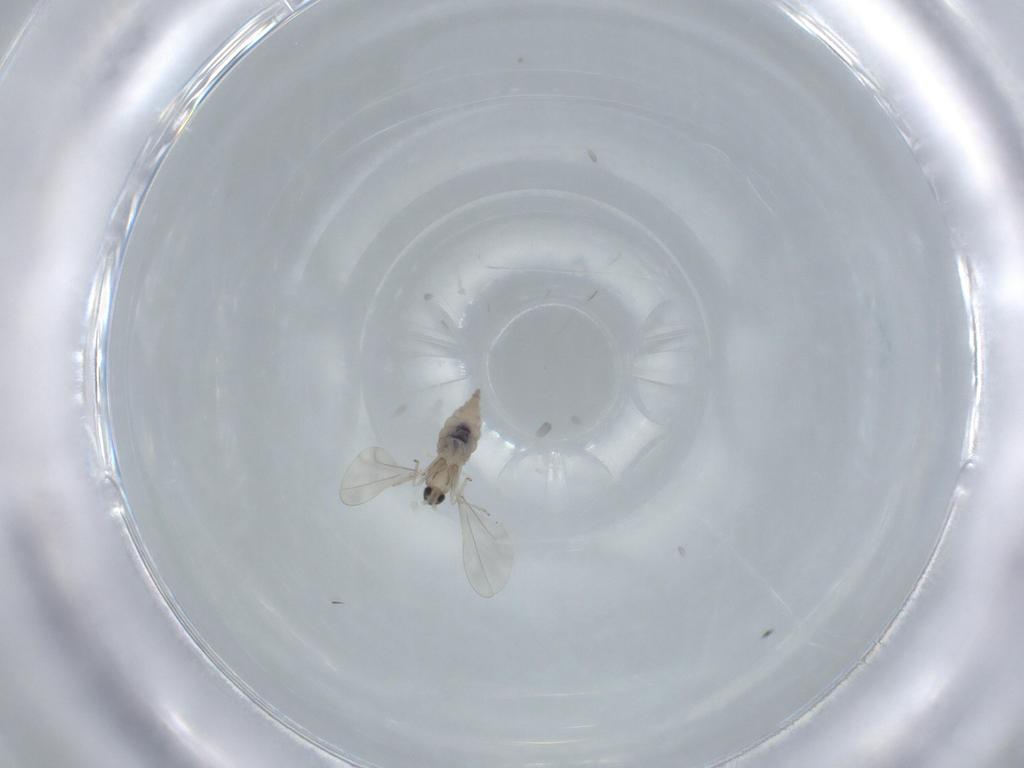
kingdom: Animalia
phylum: Arthropoda
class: Insecta
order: Diptera
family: Cecidomyiidae
